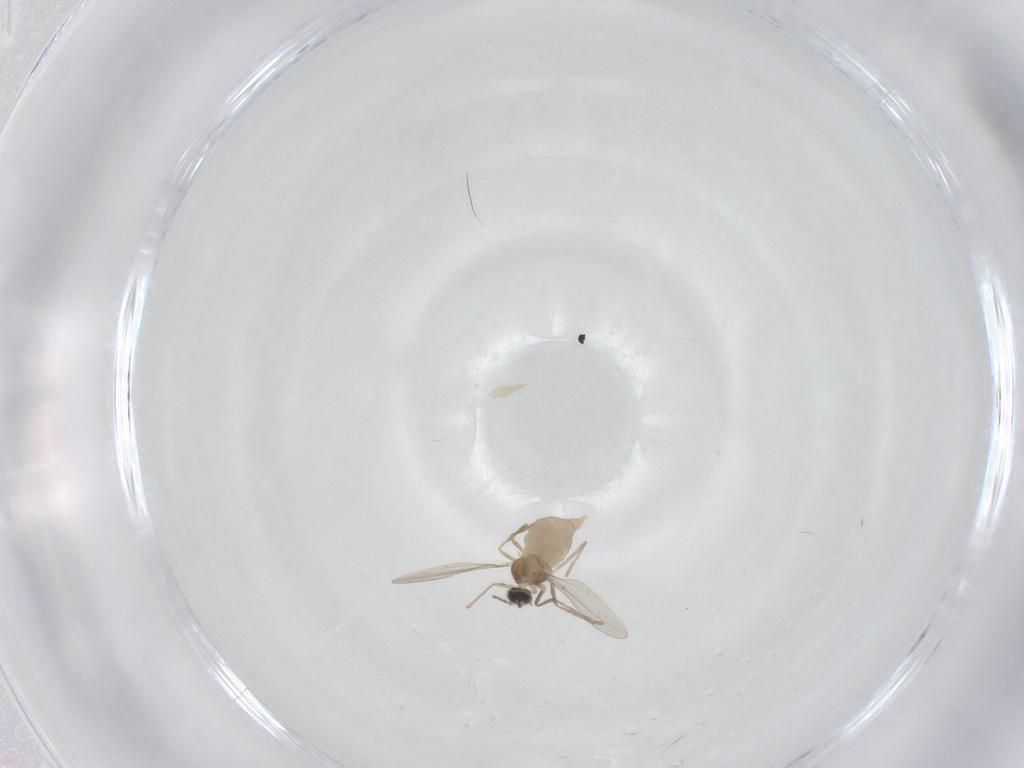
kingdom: Animalia
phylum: Arthropoda
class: Insecta
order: Diptera
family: Cecidomyiidae
